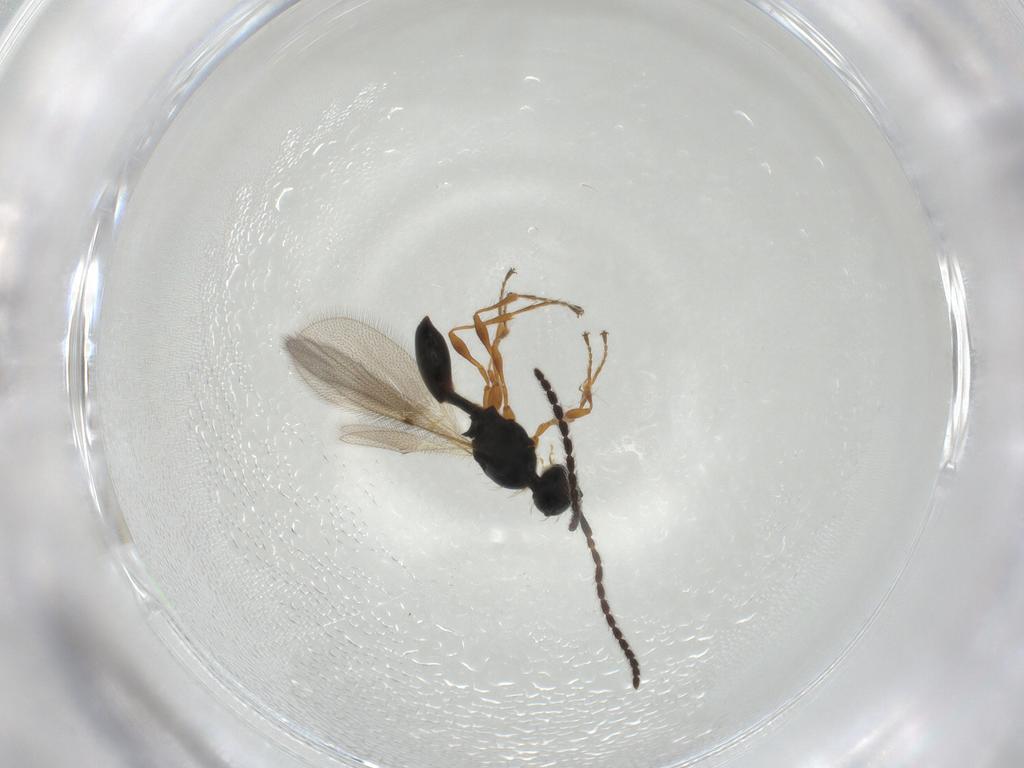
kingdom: Animalia
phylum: Arthropoda
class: Insecta
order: Hymenoptera
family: Diapriidae
